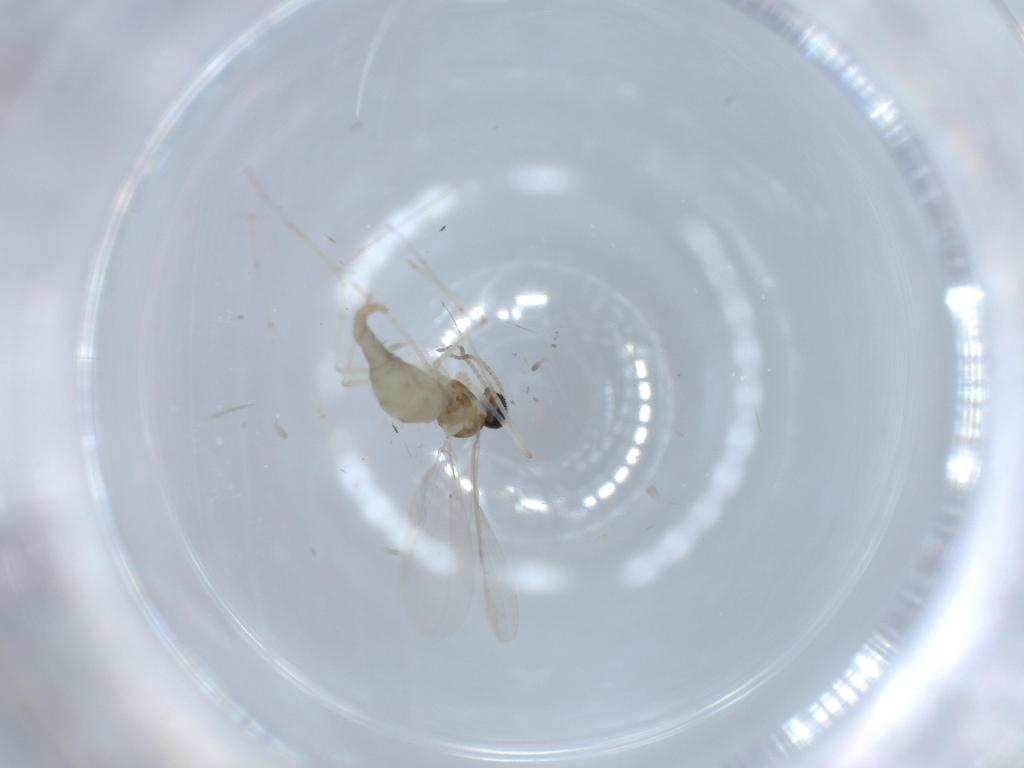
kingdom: Animalia
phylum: Arthropoda
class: Insecta
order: Diptera
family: Cecidomyiidae
